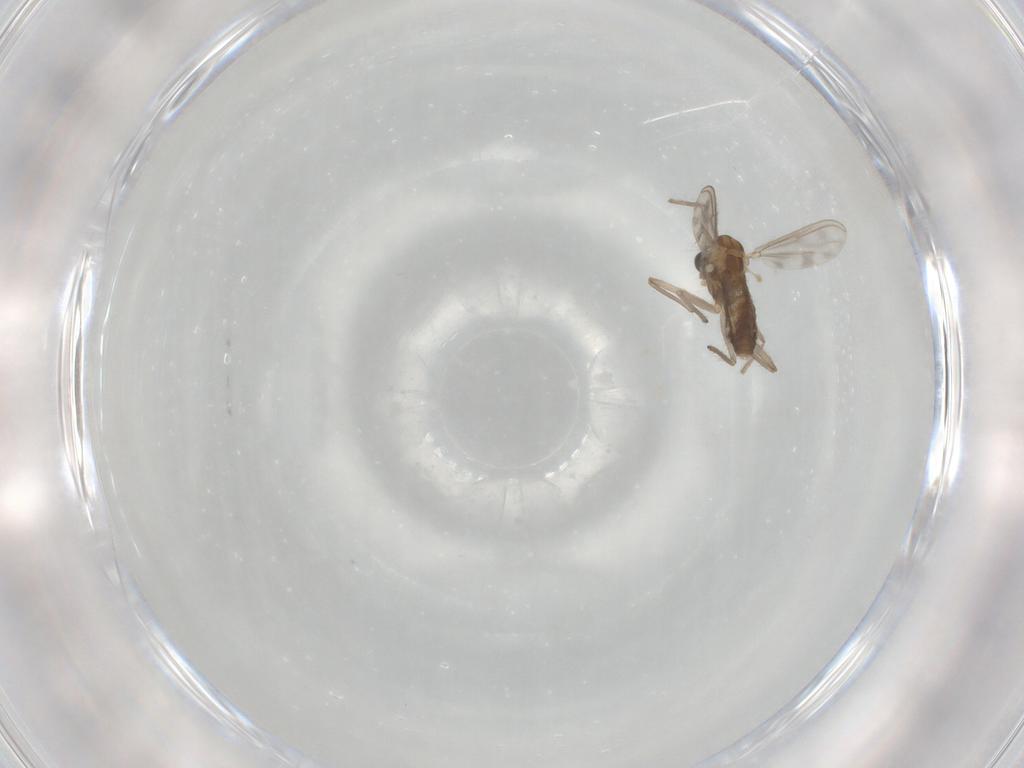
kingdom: Animalia
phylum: Arthropoda
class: Insecta
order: Diptera
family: Chironomidae
